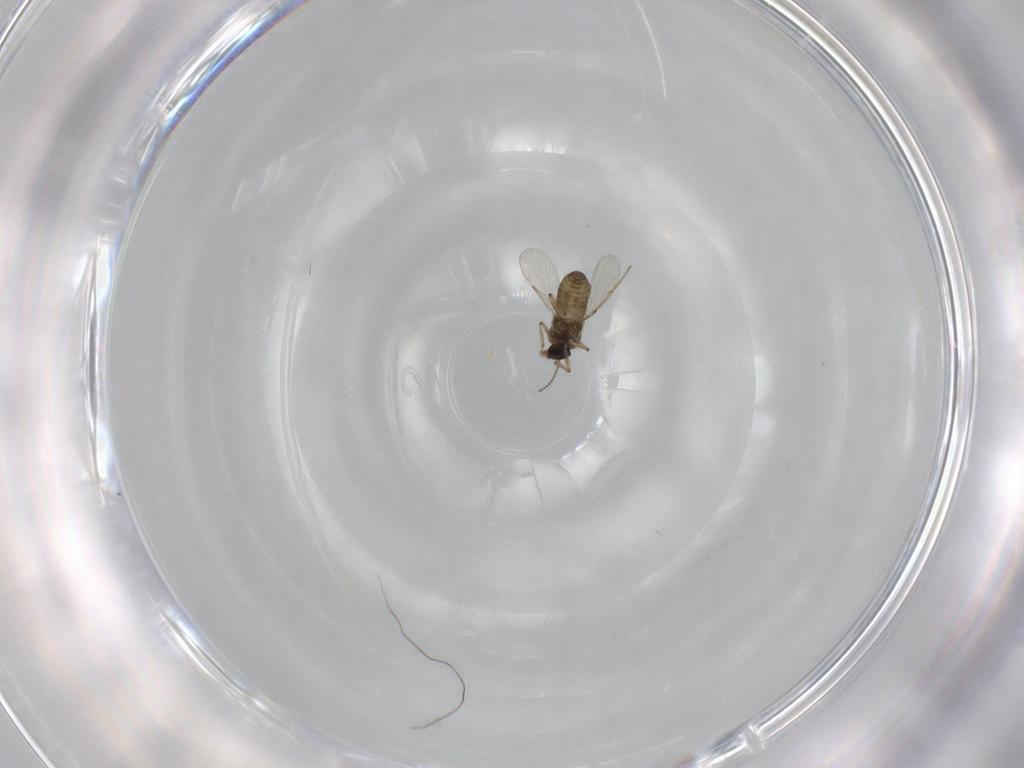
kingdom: Animalia
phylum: Arthropoda
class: Insecta
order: Diptera
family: Ceratopogonidae
